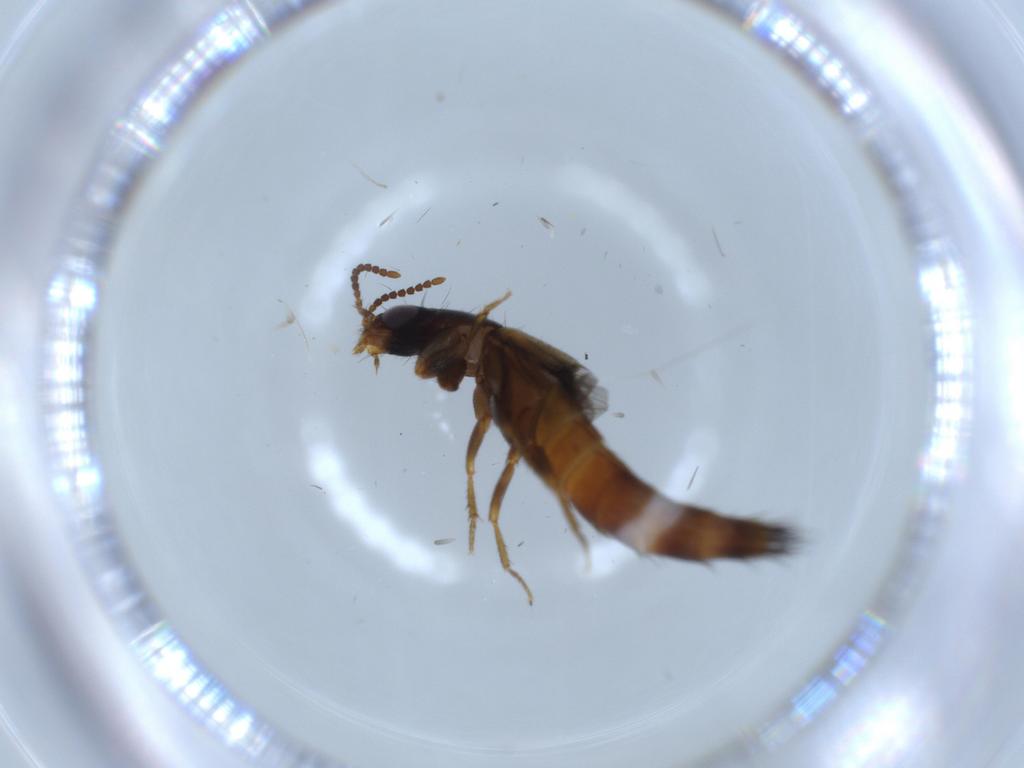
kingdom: Animalia
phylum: Arthropoda
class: Insecta
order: Coleoptera
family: Staphylinidae
